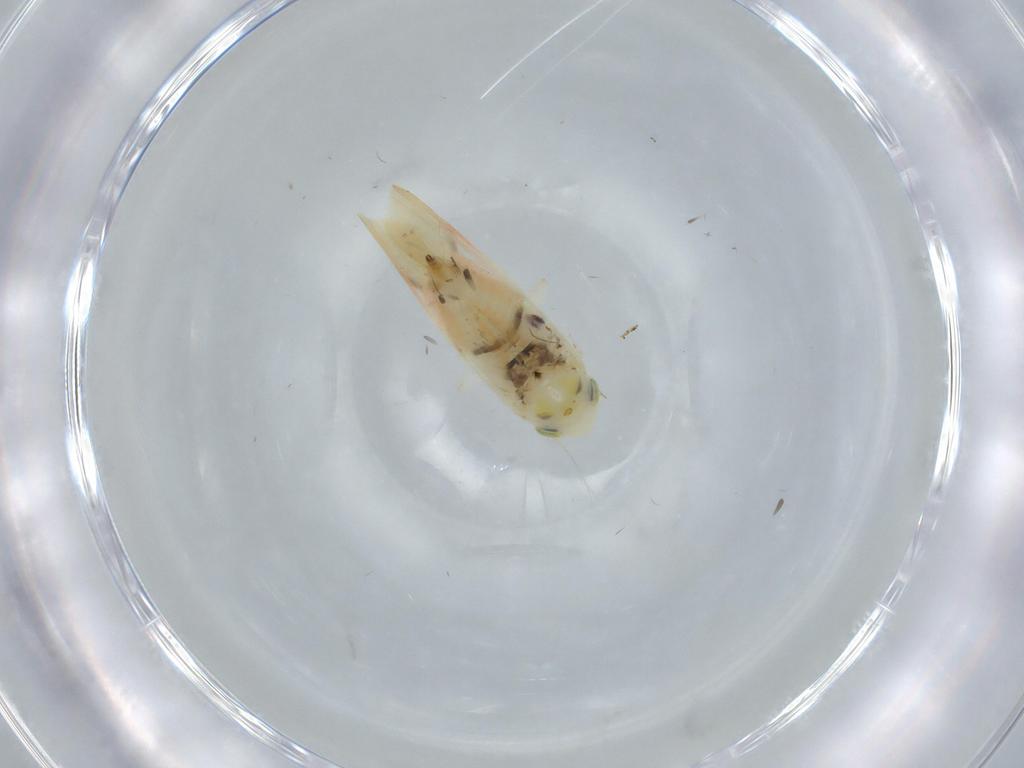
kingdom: Animalia
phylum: Arthropoda
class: Insecta
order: Hemiptera
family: Cicadellidae
